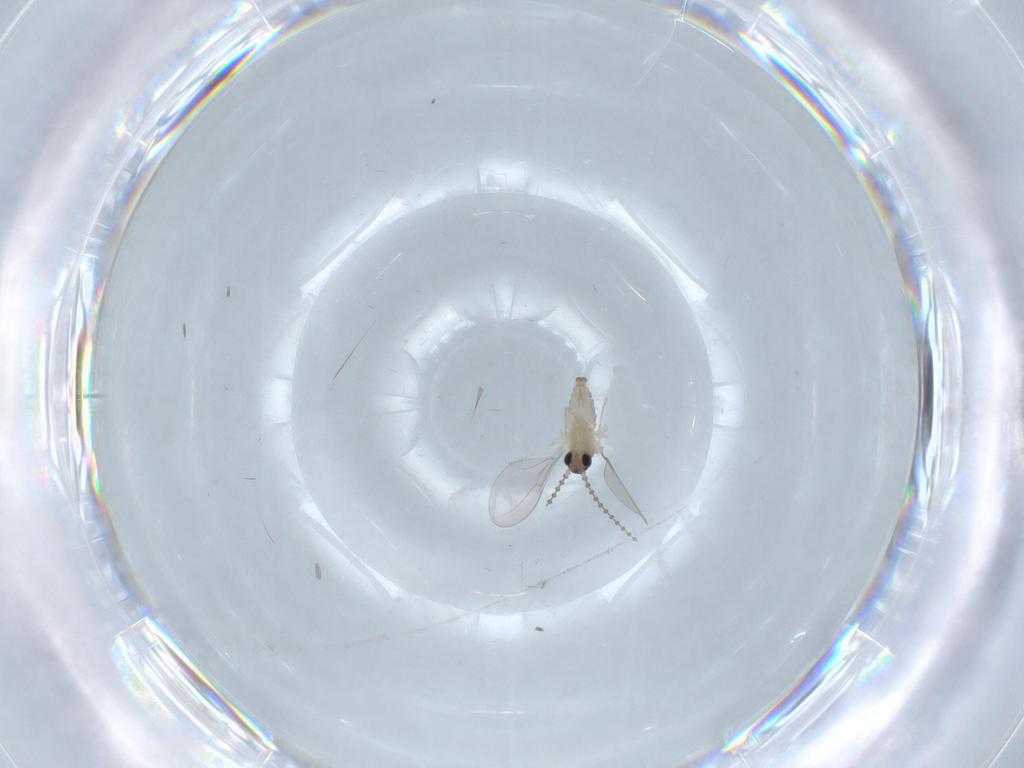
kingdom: Animalia
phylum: Arthropoda
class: Insecta
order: Diptera
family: Cecidomyiidae
